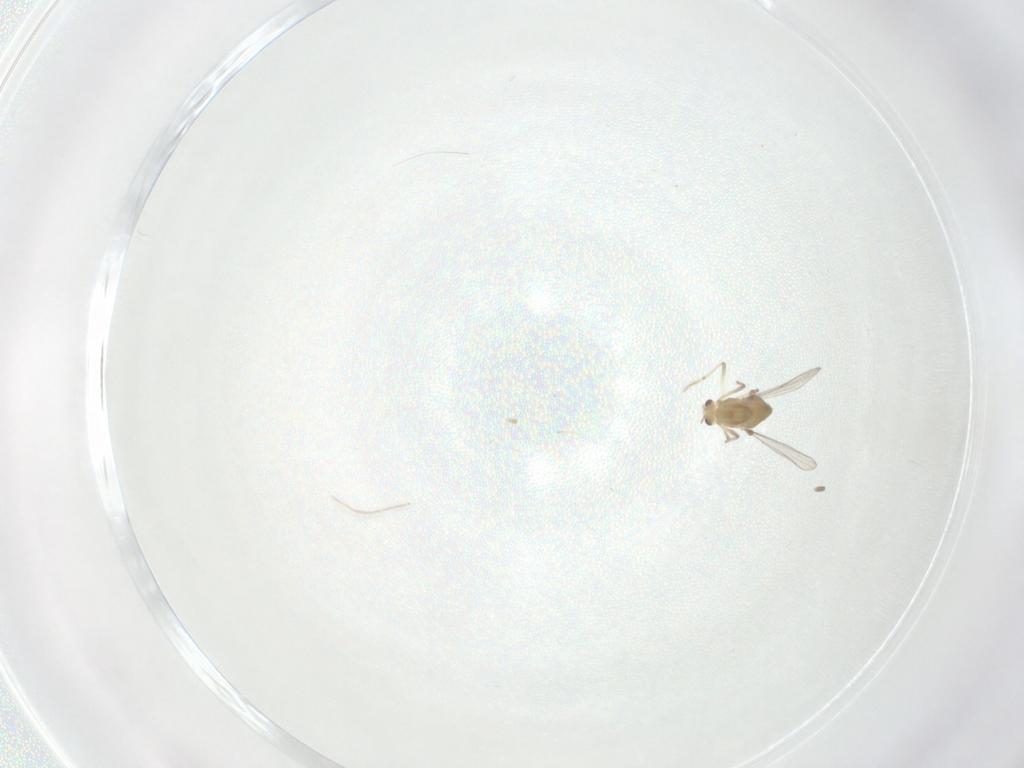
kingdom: Animalia
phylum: Arthropoda
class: Insecta
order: Diptera
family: Chironomidae
